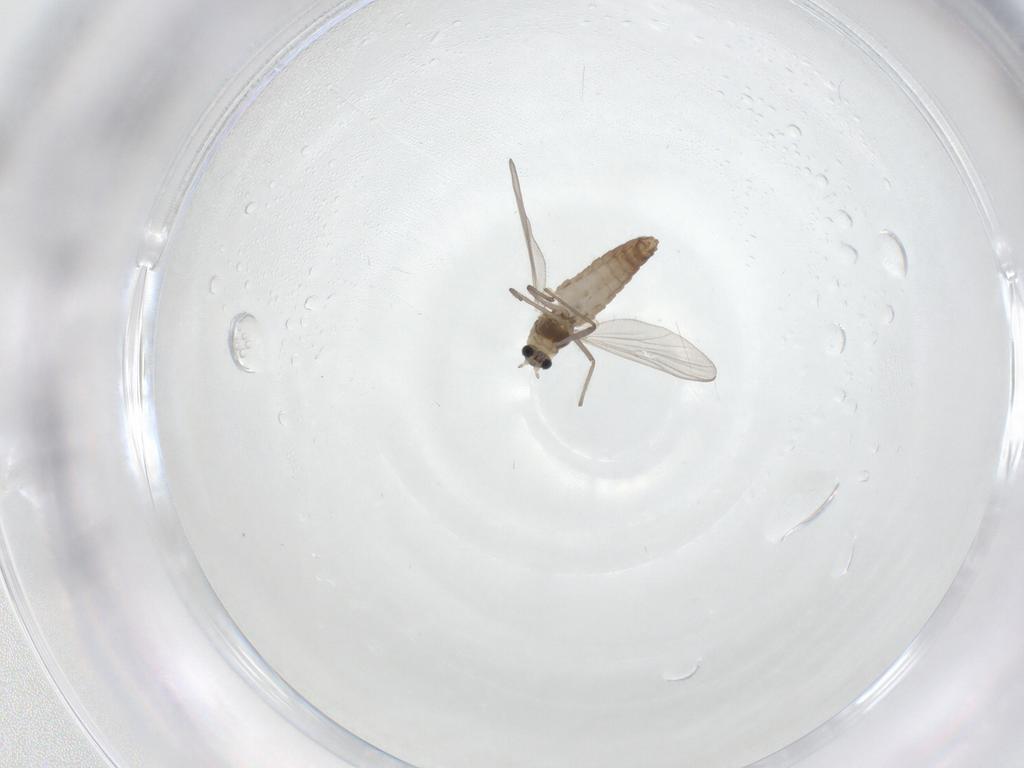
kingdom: Animalia
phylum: Arthropoda
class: Insecta
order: Diptera
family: Chironomidae
